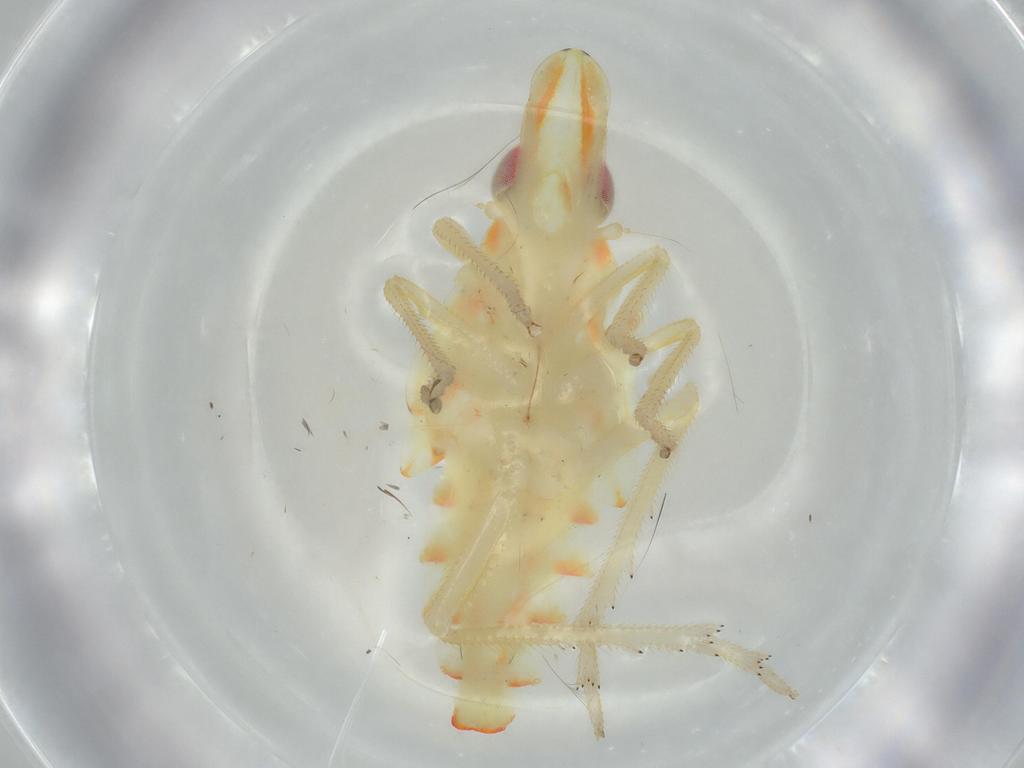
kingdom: Animalia
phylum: Arthropoda
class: Insecta
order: Hemiptera
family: Tropiduchidae
